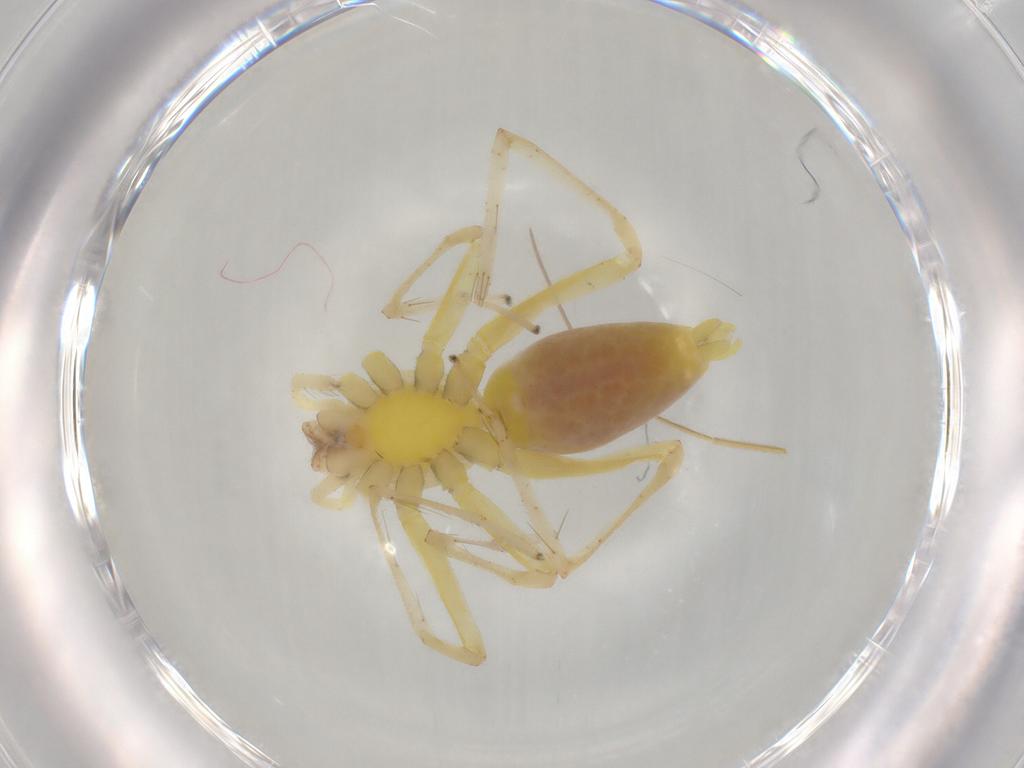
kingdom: Animalia
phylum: Arthropoda
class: Arachnida
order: Araneae
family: Clubionidae
